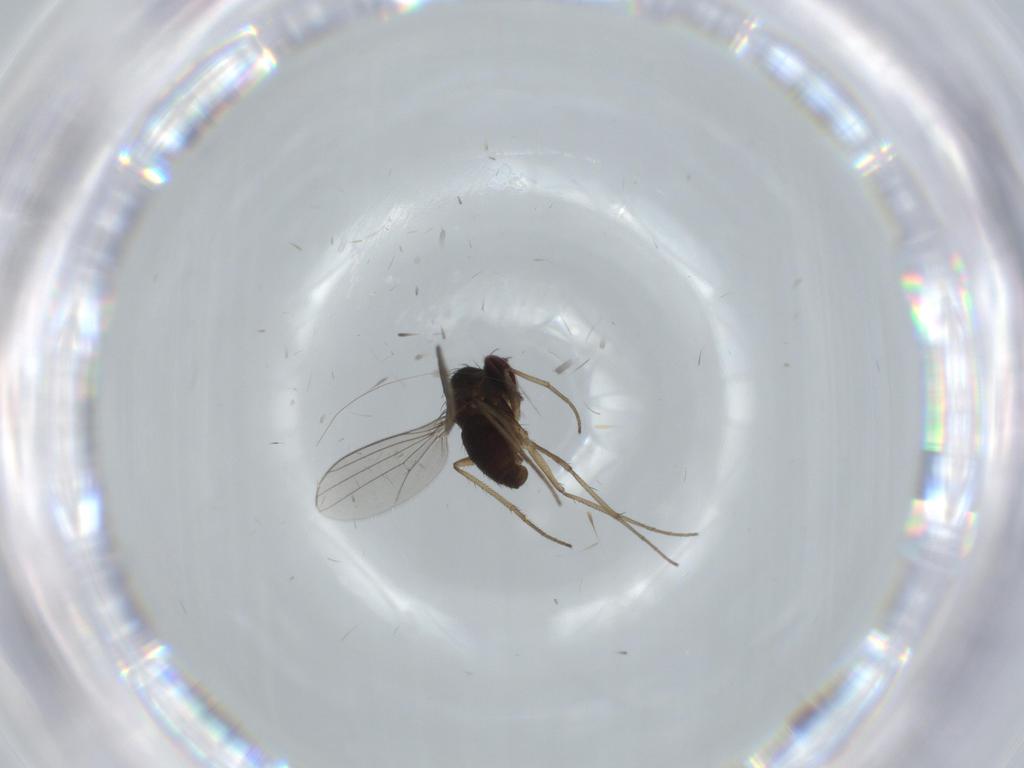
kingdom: Animalia
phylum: Arthropoda
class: Insecta
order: Diptera
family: Dolichopodidae
